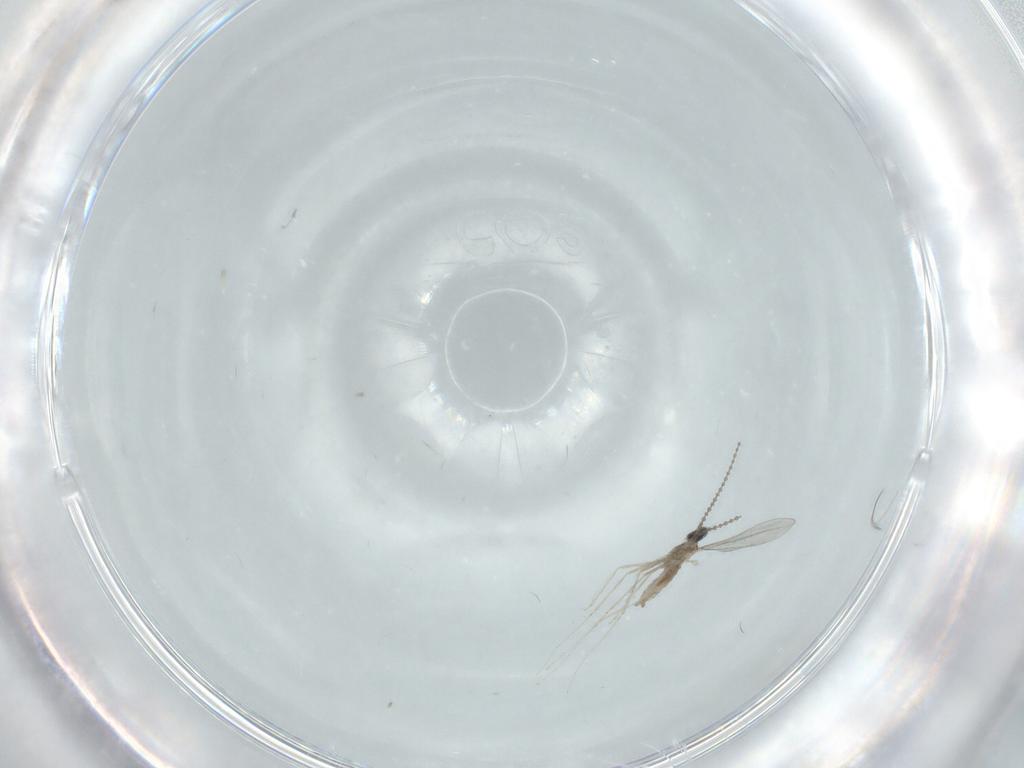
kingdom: Animalia
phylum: Arthropoda
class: Insecta
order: Diptera
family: Cecidomyiidae
